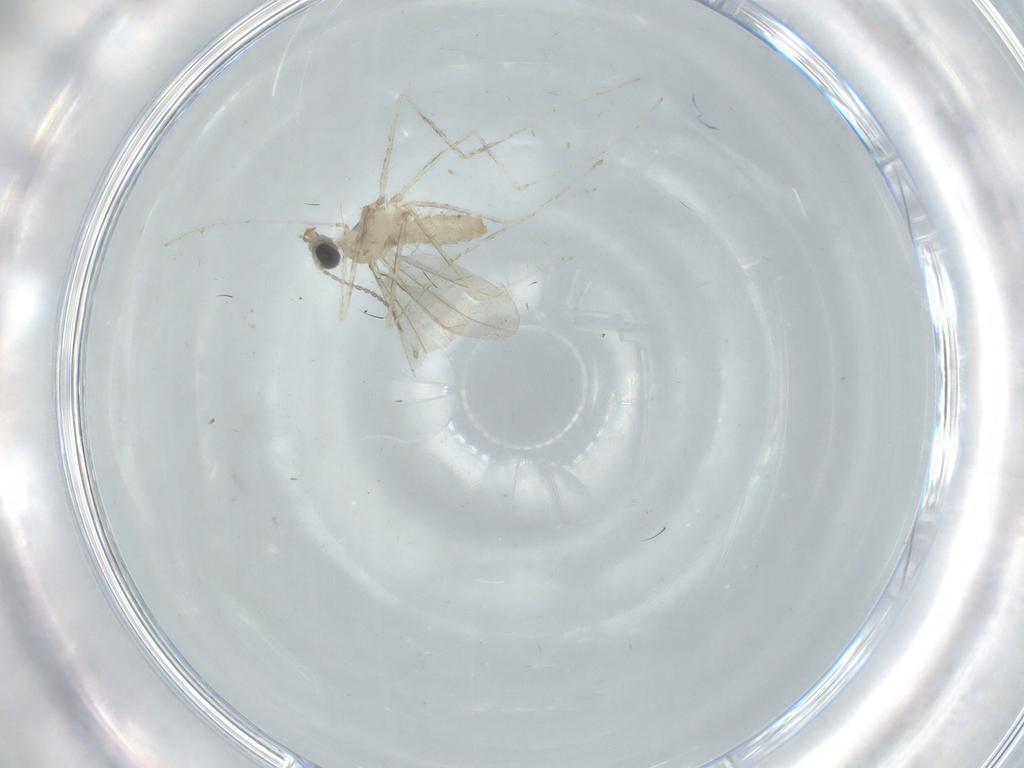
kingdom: Animalia
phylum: Arthropoda
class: Insecta
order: Diptera
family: Cecidomyiidae
